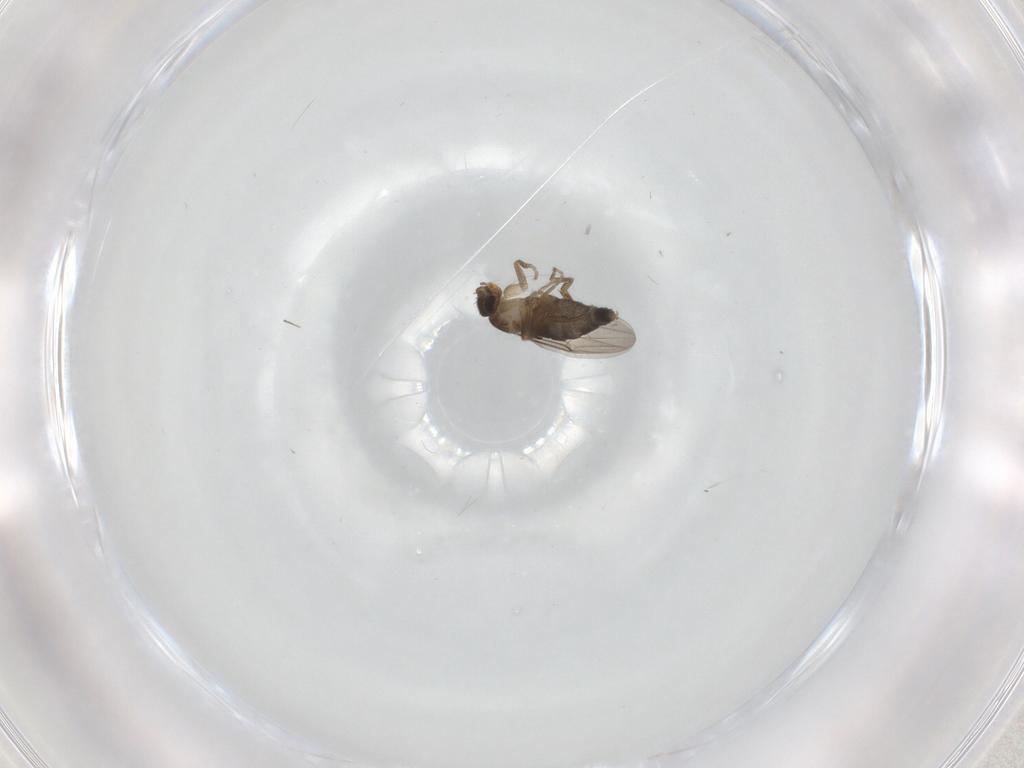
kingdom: Animalia
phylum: Arthropoda
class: Insecta
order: Diptera
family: Phoridae
